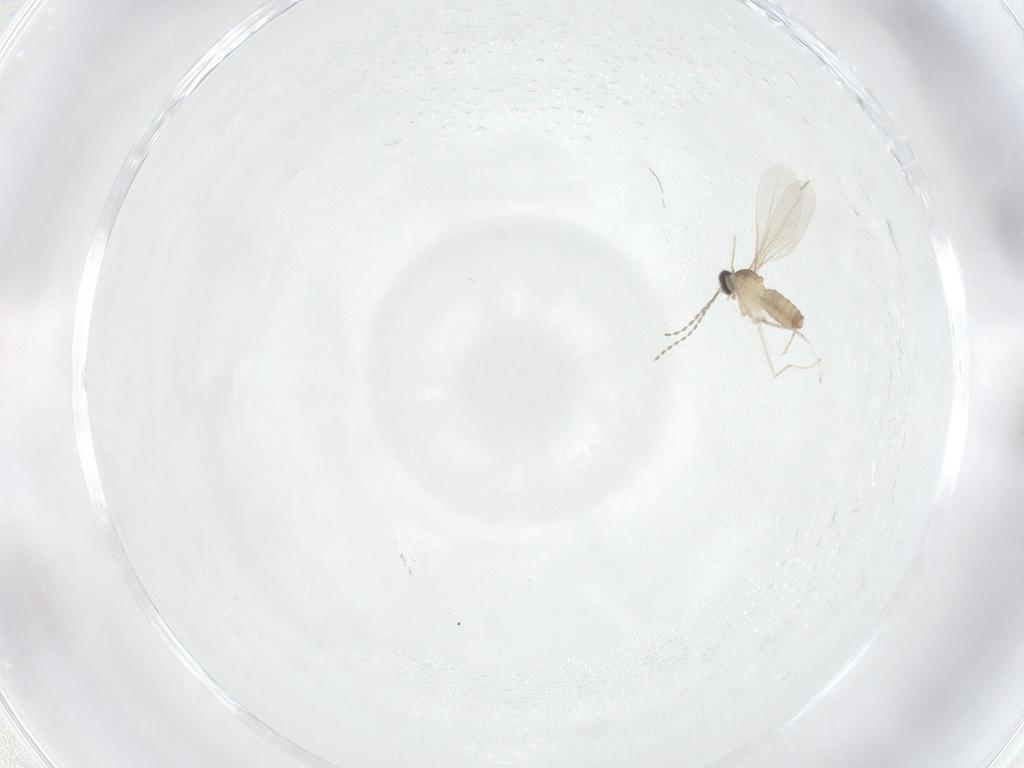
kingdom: Animalia
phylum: Arthropoda
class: Insecta
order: Diptera
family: Cecidomyiidae
